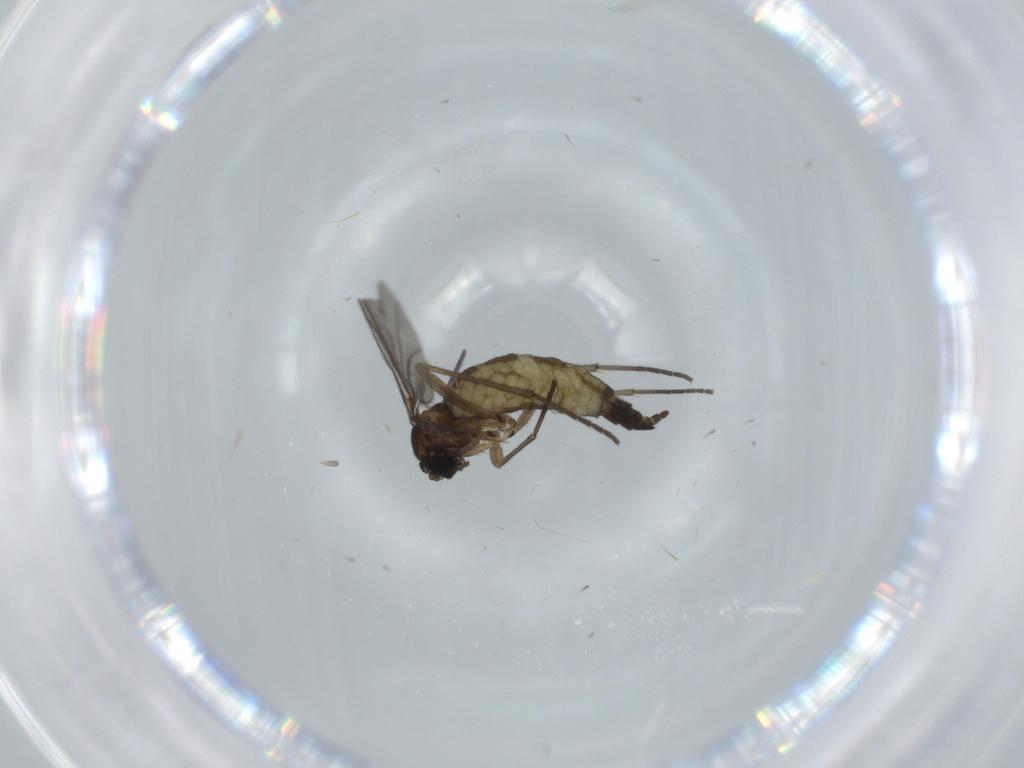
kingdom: Animalia
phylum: Arthropoda
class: Insecta
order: Diptera
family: Sciaridae
